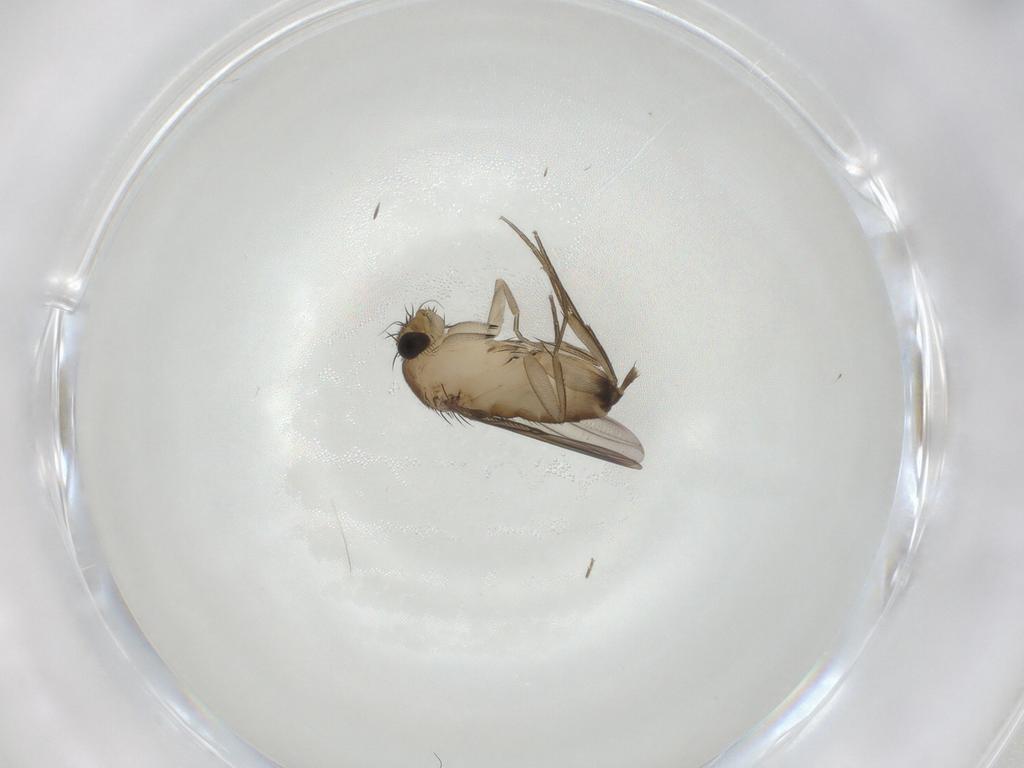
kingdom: Animalia
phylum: Arthropoda
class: Insecta
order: Diptera
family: Phoridae
